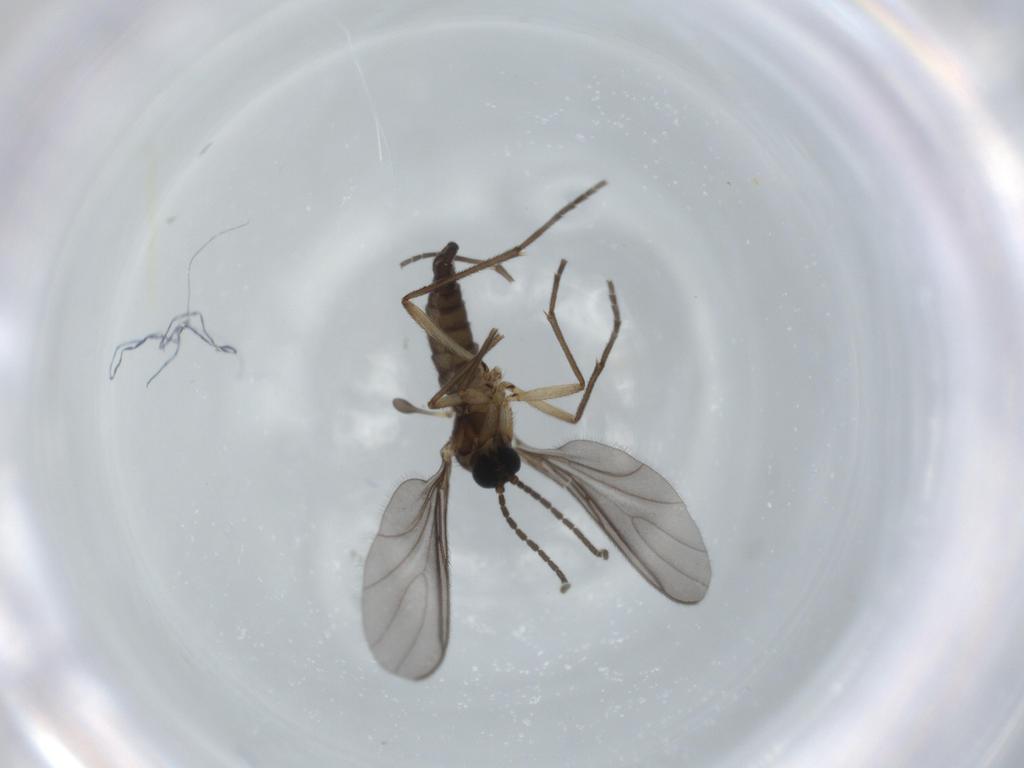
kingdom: Animalia
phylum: Arthropoda
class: Insecta
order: Diptera
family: Sciaridae
